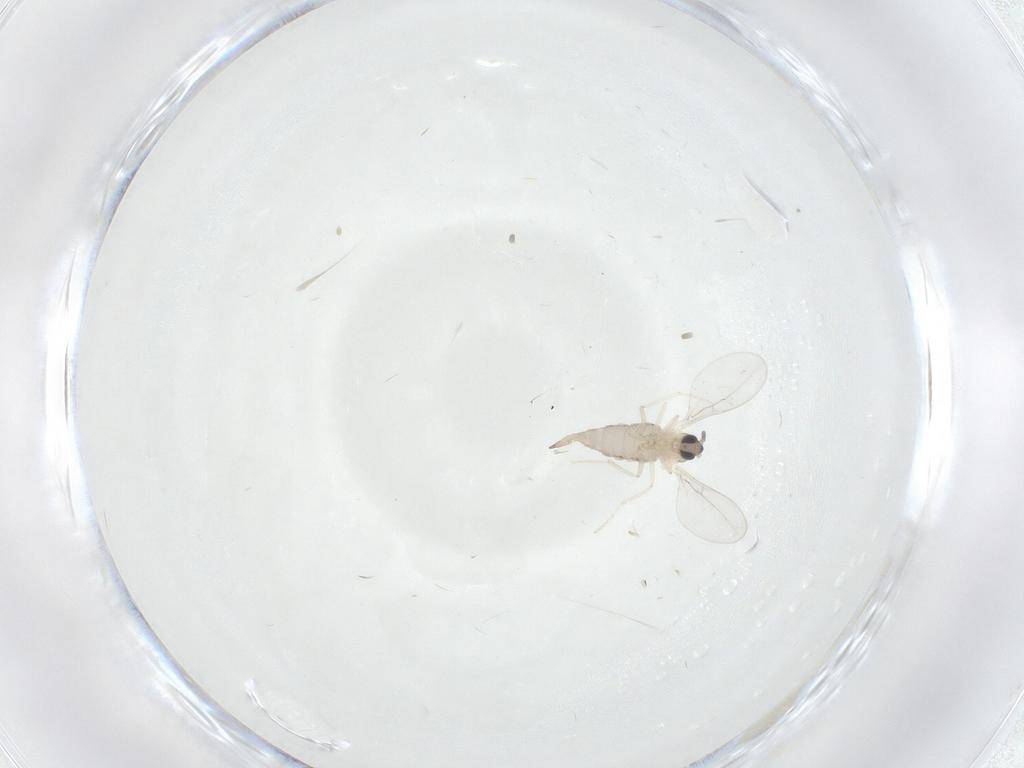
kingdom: Animalia
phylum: Arthropoda
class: Insecta
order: Diptera
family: Cecidomyiidae
